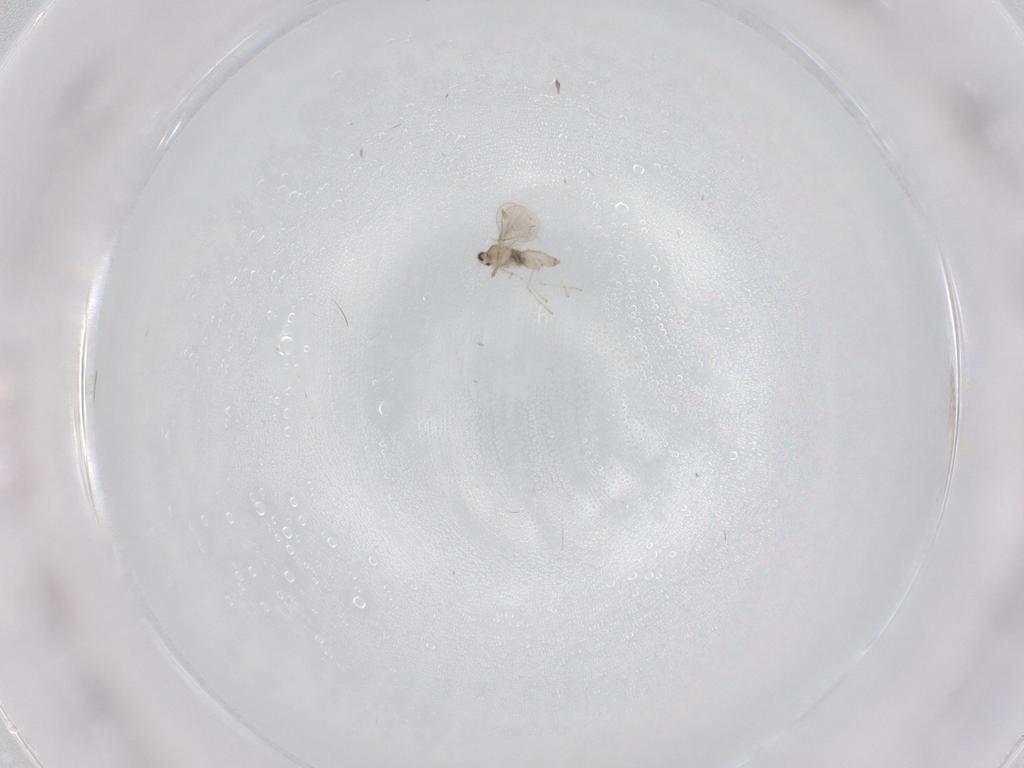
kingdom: Animalia
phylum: Arthropoda
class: Insecta
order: Diptera
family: Cecidomyiidae
